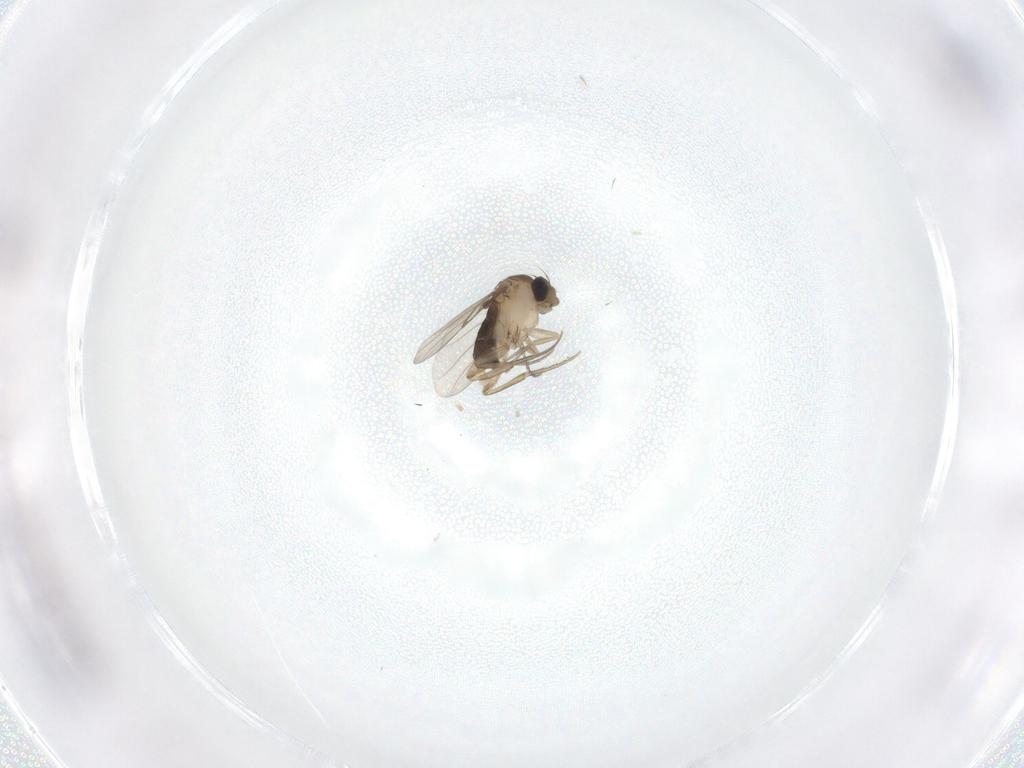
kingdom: Animalia
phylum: Arthropoda
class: Insecta
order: Diptera
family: Phoridae
